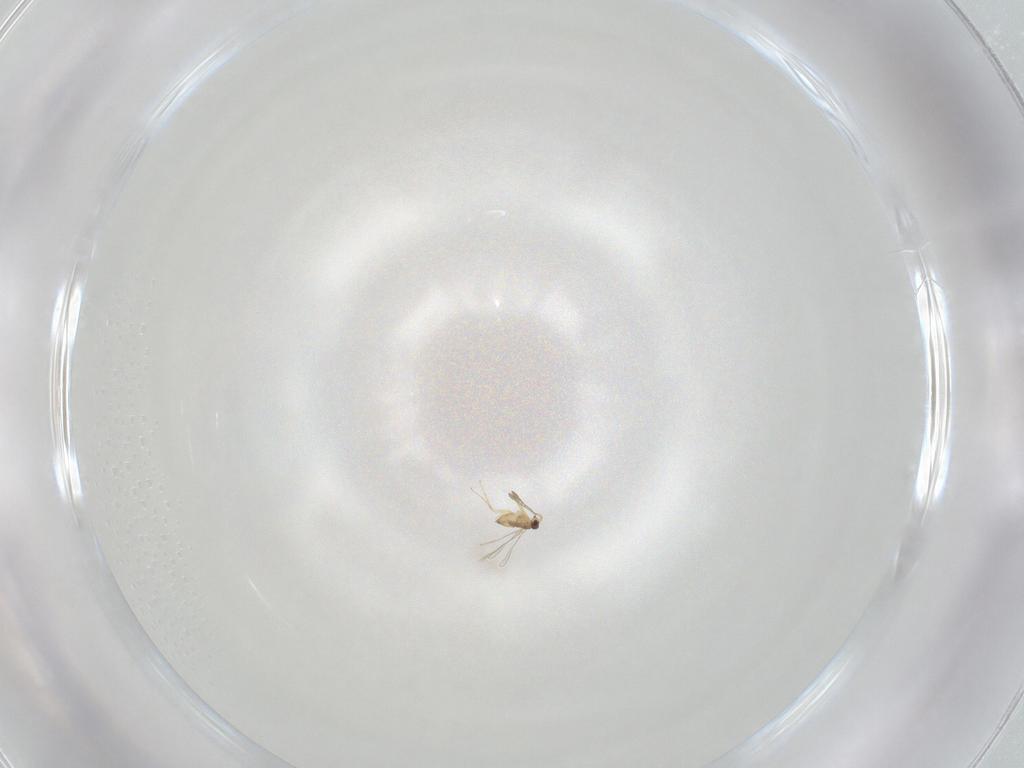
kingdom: Animalia
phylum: Arthropoda
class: Insecta
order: Hymenoptera
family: Mymaridae
